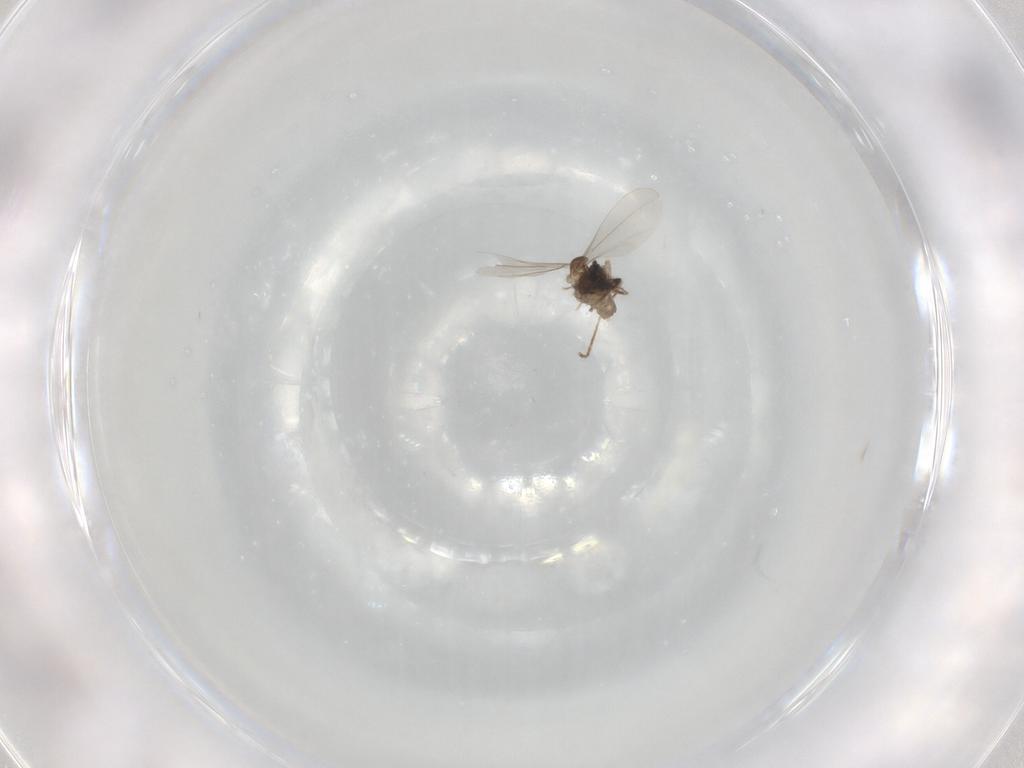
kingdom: Animalia
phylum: Arthropoda
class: Insecta
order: Diptera
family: Cecidomyiidae
